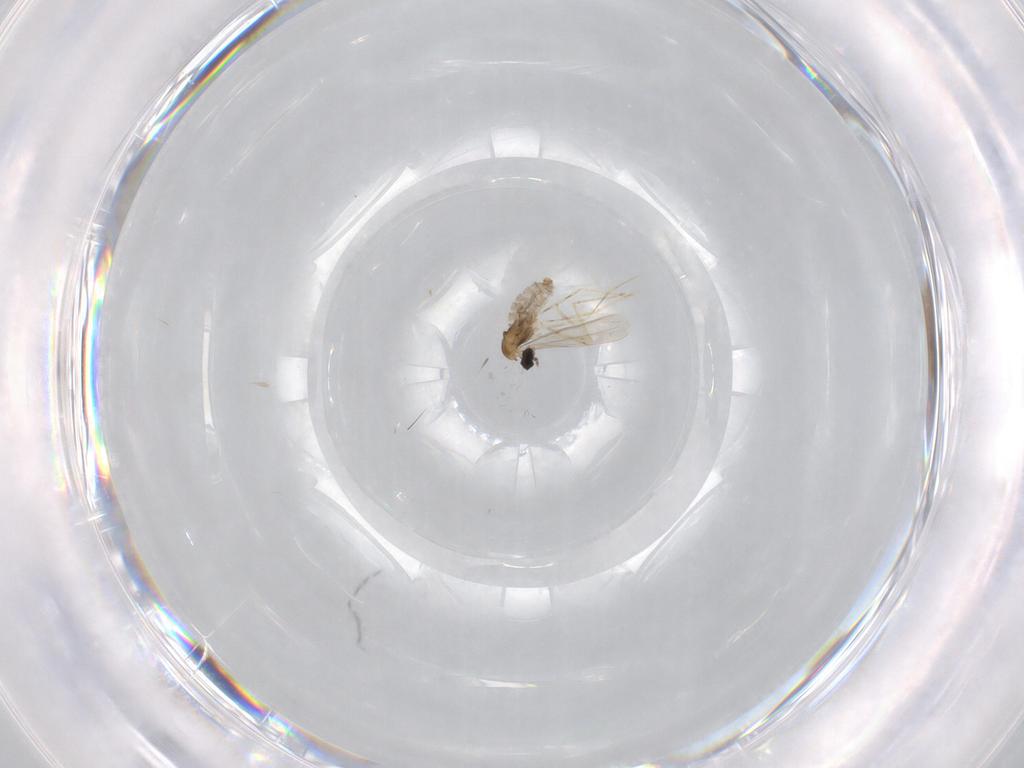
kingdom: Animalia
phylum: Arthropoda
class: Insecta
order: Diptera
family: Cecidomyiidae
